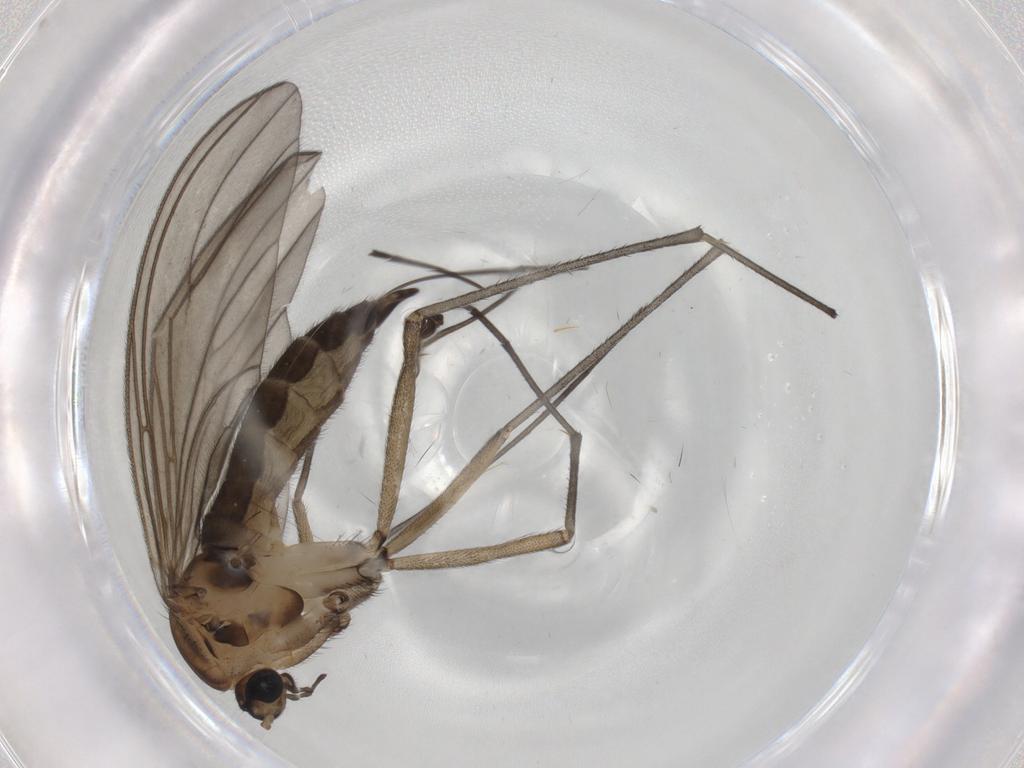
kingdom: Animalia
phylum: Arthropoda
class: Insecta
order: Diptera
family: Sciaridae
